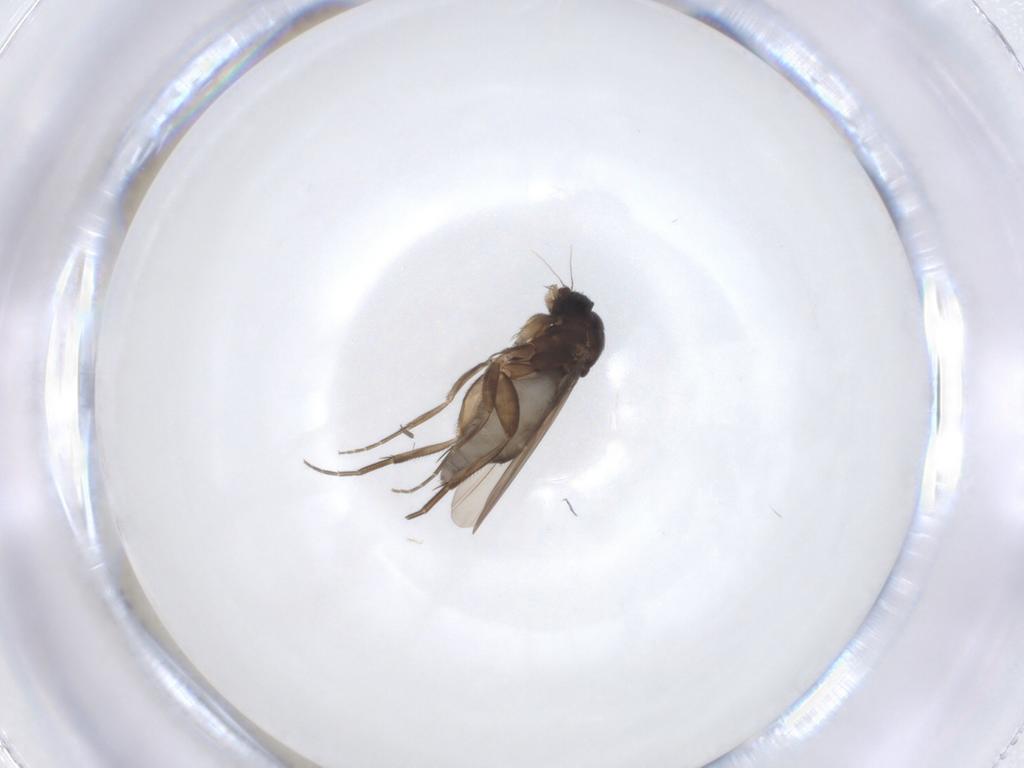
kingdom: Animalia
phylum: Arthropoda
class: Insecta
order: Diptera
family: Phoridae
